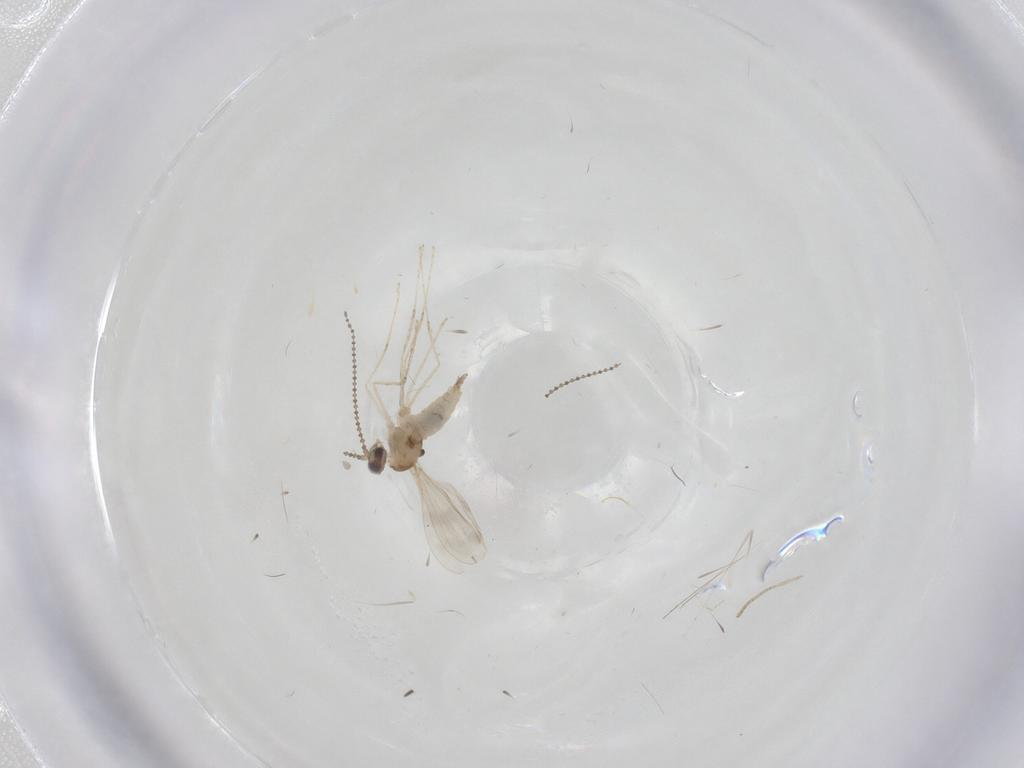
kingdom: Animalia
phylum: Arthropoda
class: Insecta
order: Diptera
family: Cecidomyiidae
